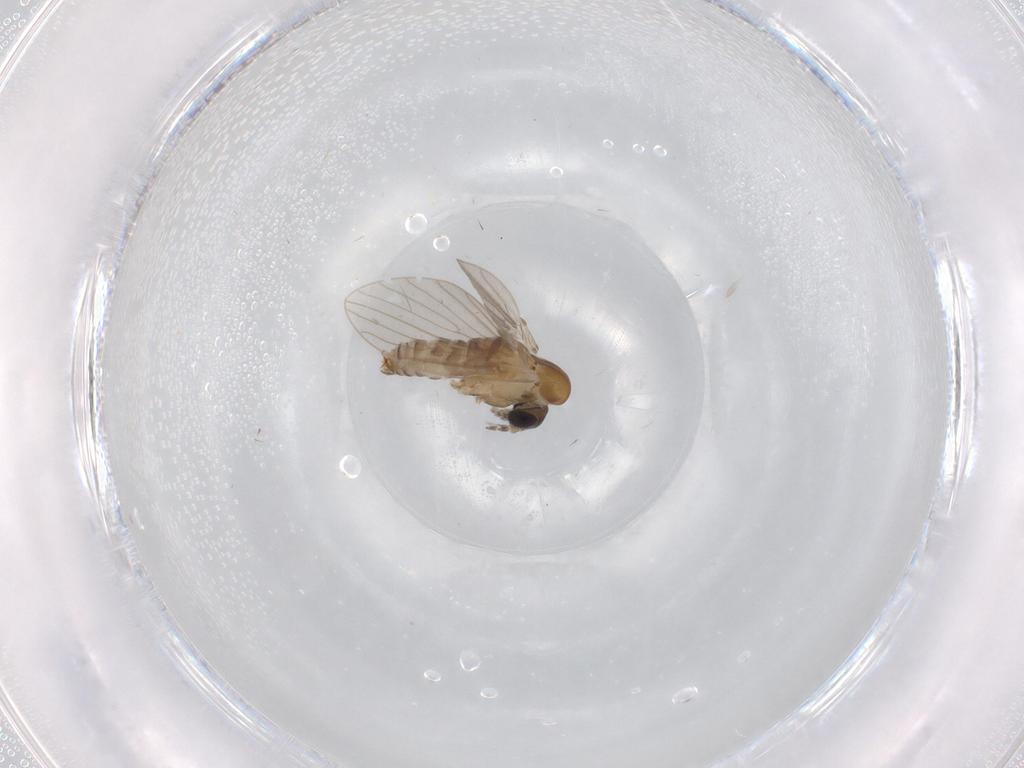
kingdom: Animalia
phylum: Arthropoda
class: Insecta
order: Diptera
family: Psychodidae
